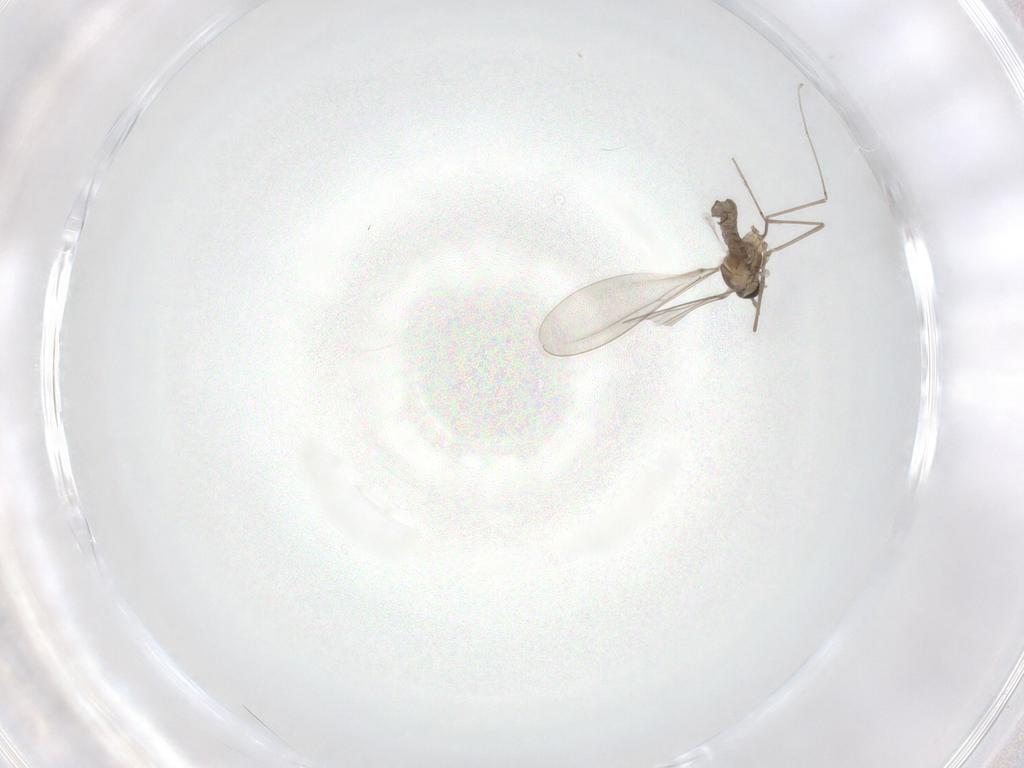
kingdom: Animalia
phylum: Arthropoda
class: Insecta
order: Diptera
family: Cecidomyiidae
